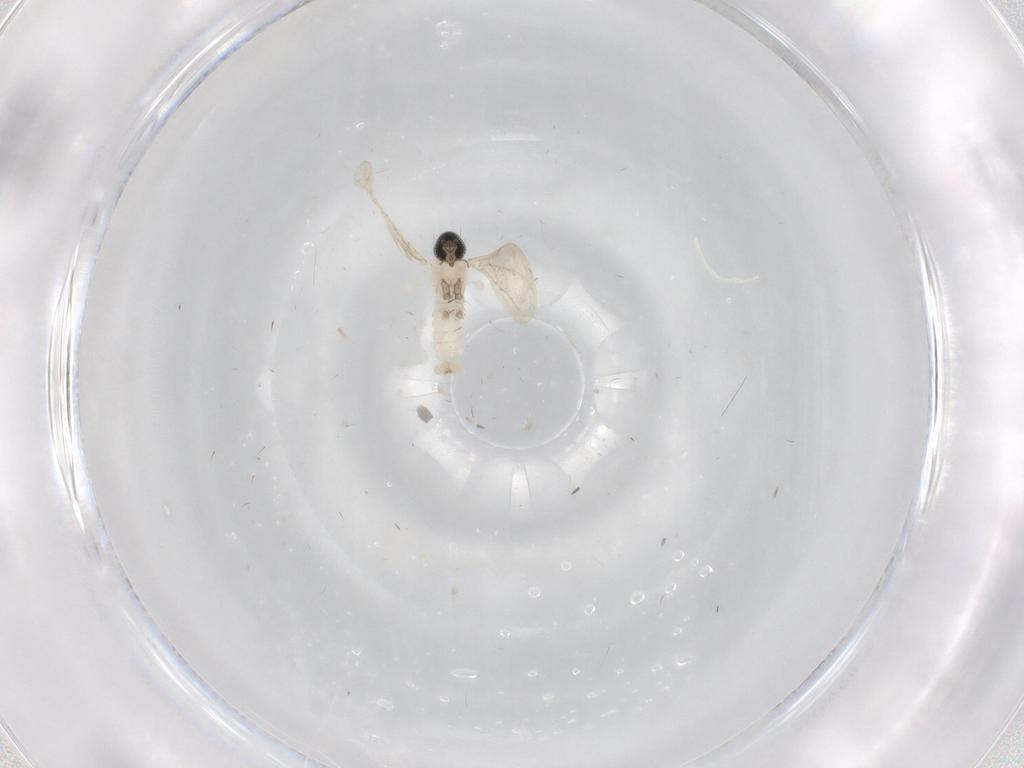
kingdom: Animalia
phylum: Arthropoda
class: Insecta
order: Diptera
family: Cecidomyiidae
